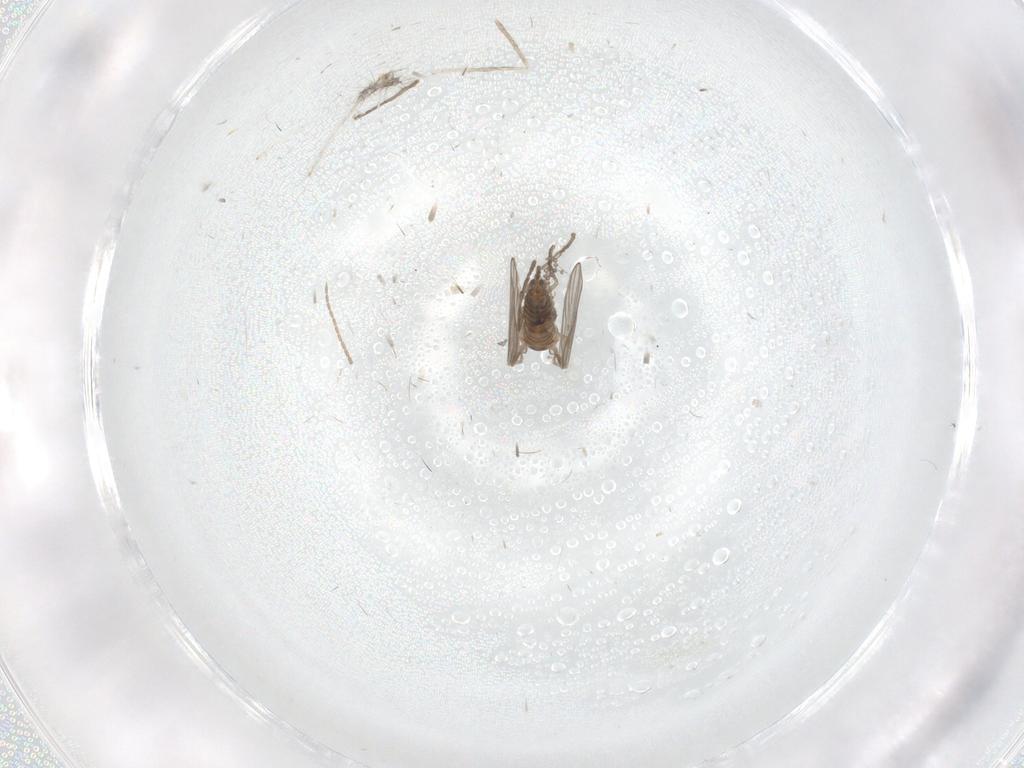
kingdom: Animalia
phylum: Arthropoda
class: Insecta
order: Diptera
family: Psychodidae
